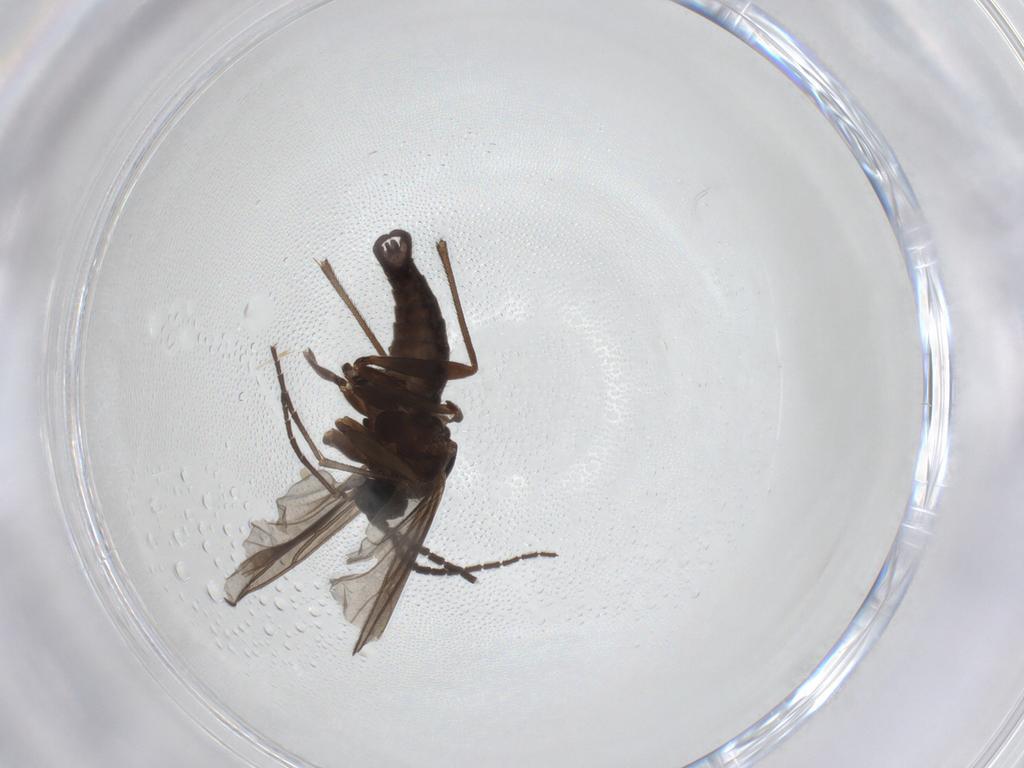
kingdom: Animalia
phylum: Arthropoda
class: Insecta
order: Diptera
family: Sciaridae
